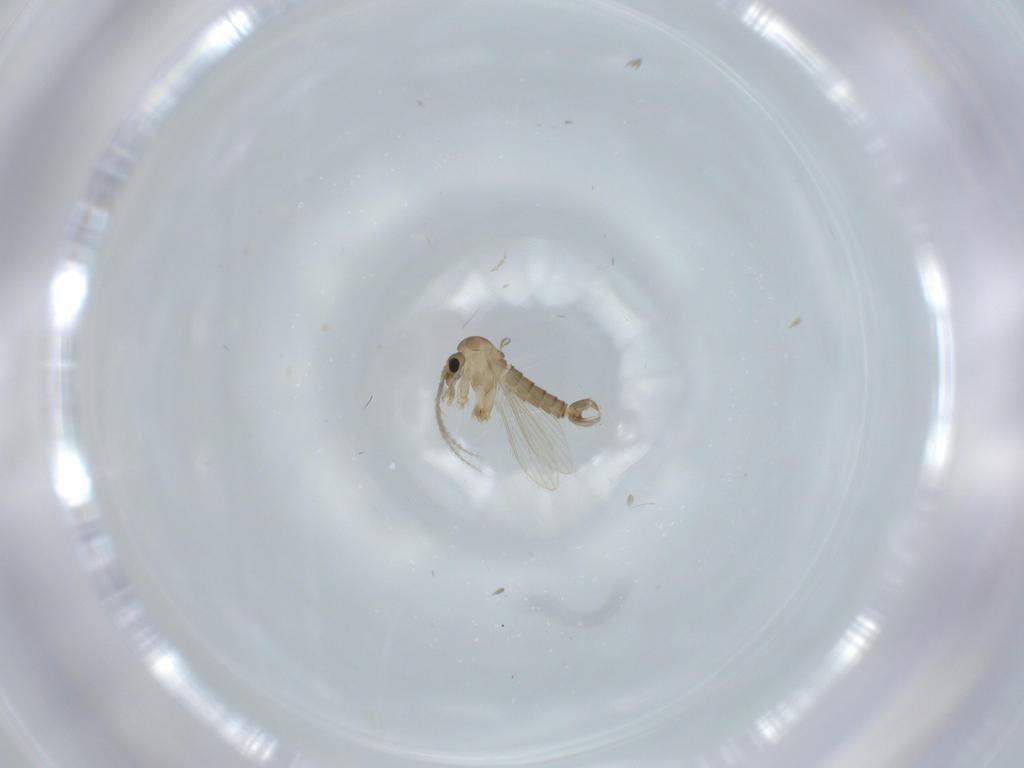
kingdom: Animalia
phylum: Arthropoda
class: Insecta
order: Diptera
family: Psychodidae
